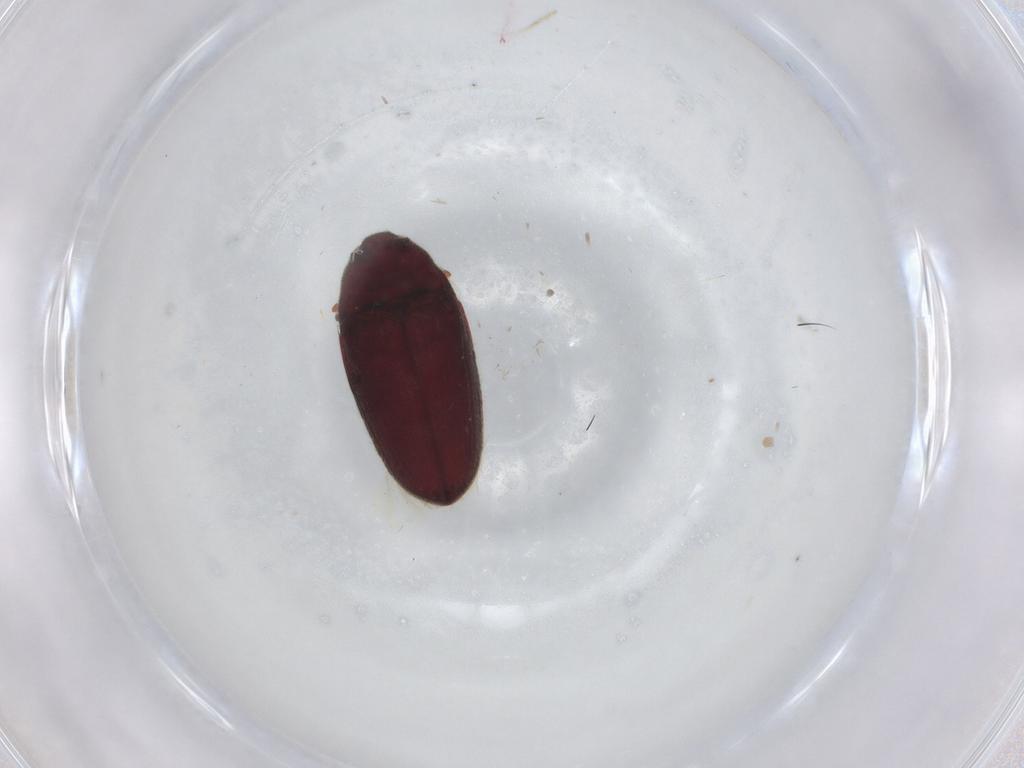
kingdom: Animalia
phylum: Arthropoda
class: Insecta
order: Coleoptera
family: Throscidae
